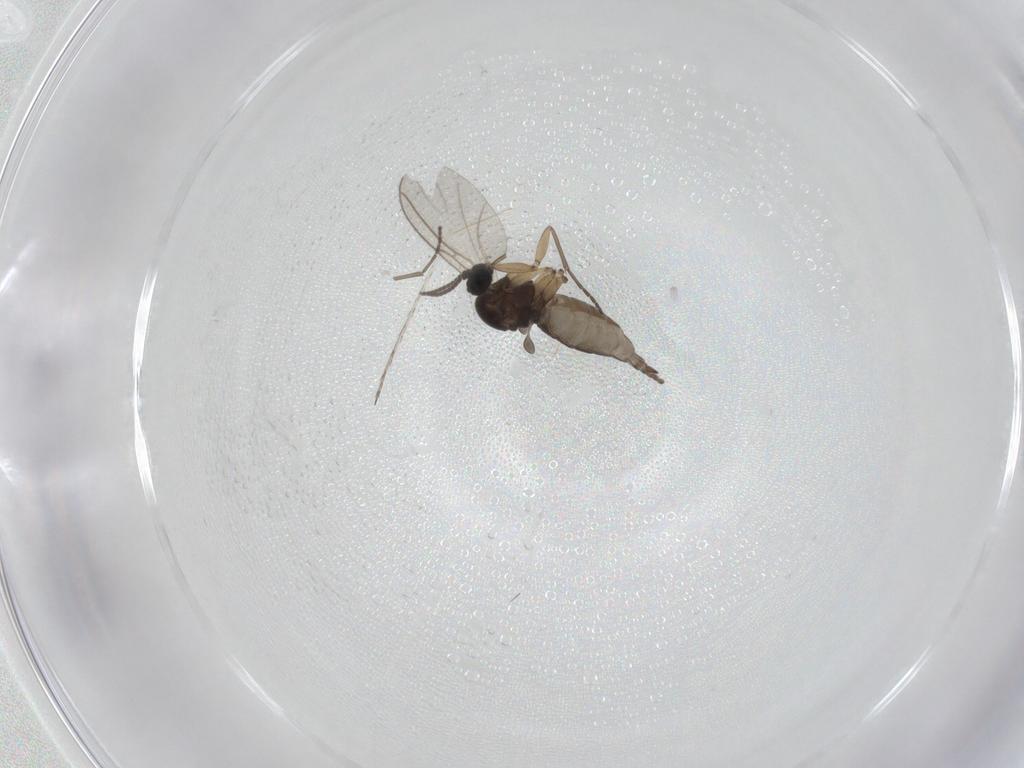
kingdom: Animalia
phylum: Arthropoda
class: Insecta
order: Diptera
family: Sciaridae
